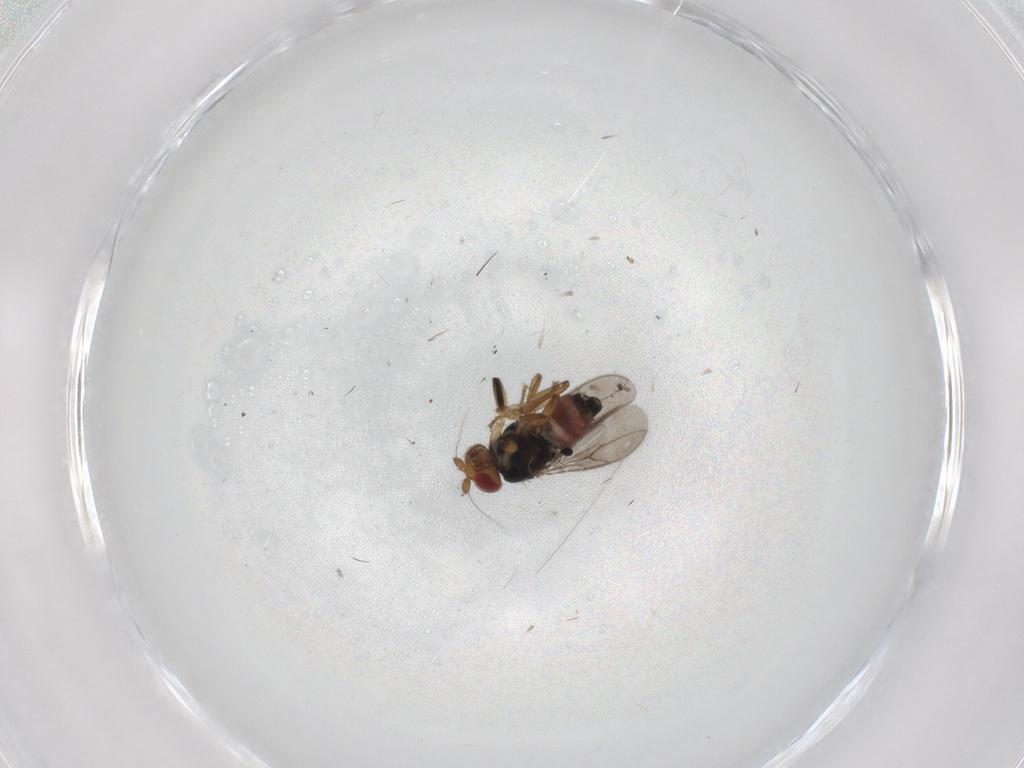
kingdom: Animalia
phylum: Arthropoda
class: Insecta
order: Diptera
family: Sphaeroceridae
